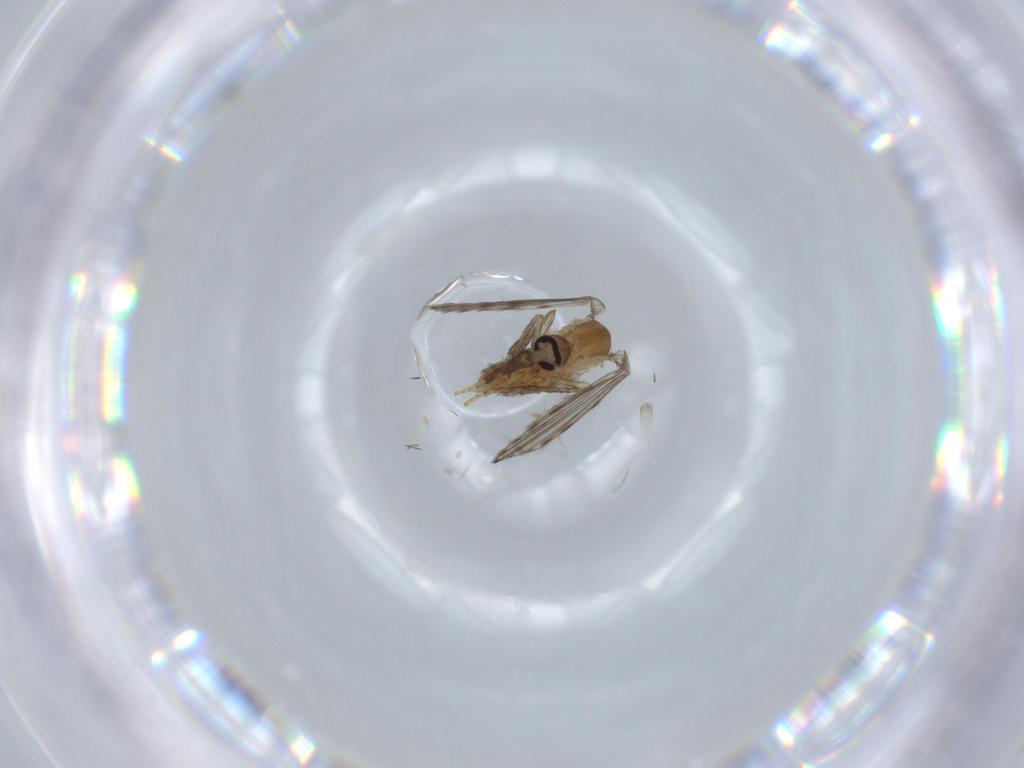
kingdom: Animalia
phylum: Arthropoda
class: Insecta
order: Diptera
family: Psychodidae
